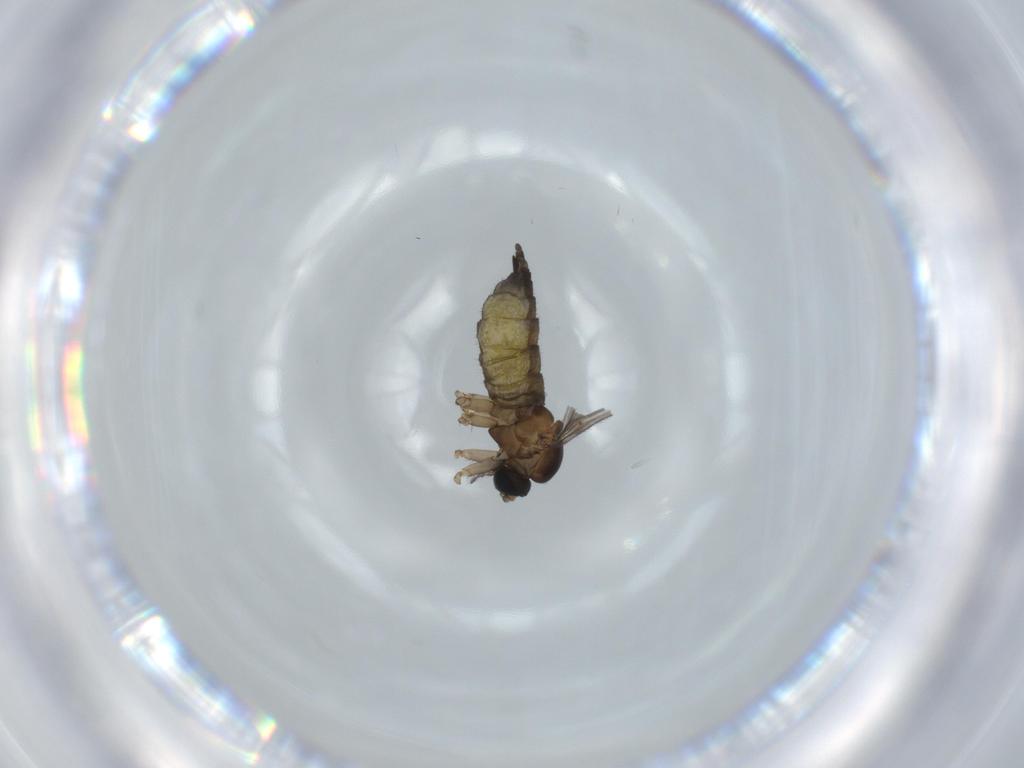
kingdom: Animalia
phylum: Arthropoda
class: Insecta
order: Diptera
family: Sciaridae
